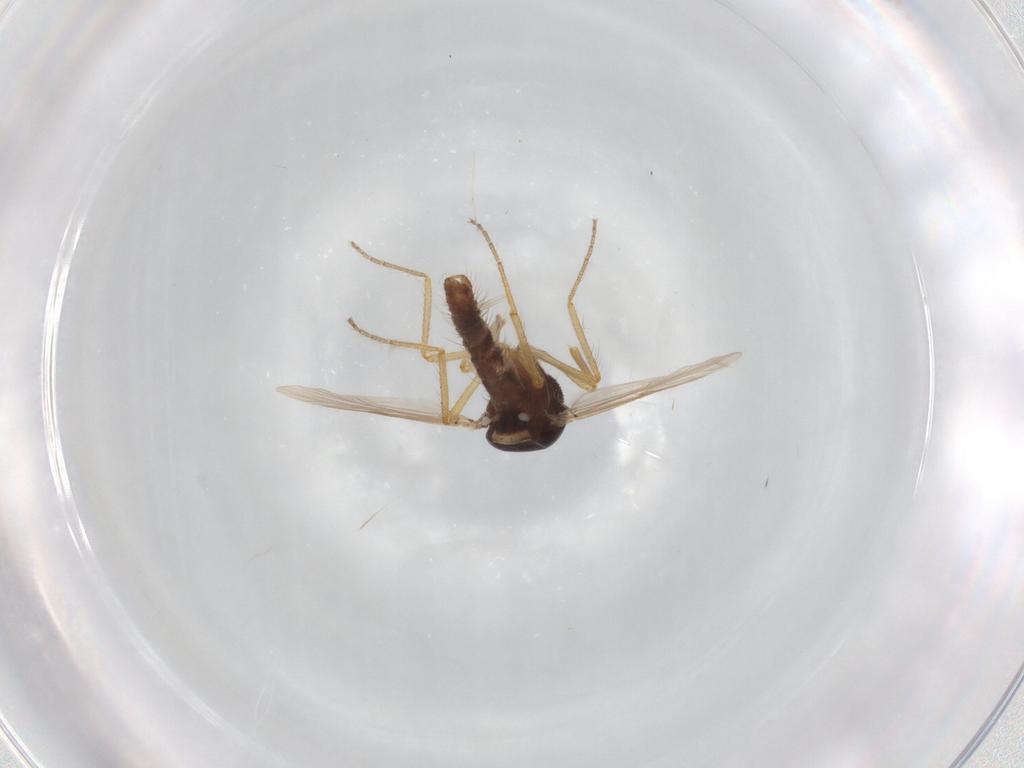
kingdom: Animalia
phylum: Arthropoda
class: Insecta
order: Diptera
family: Ceratopogonidae
